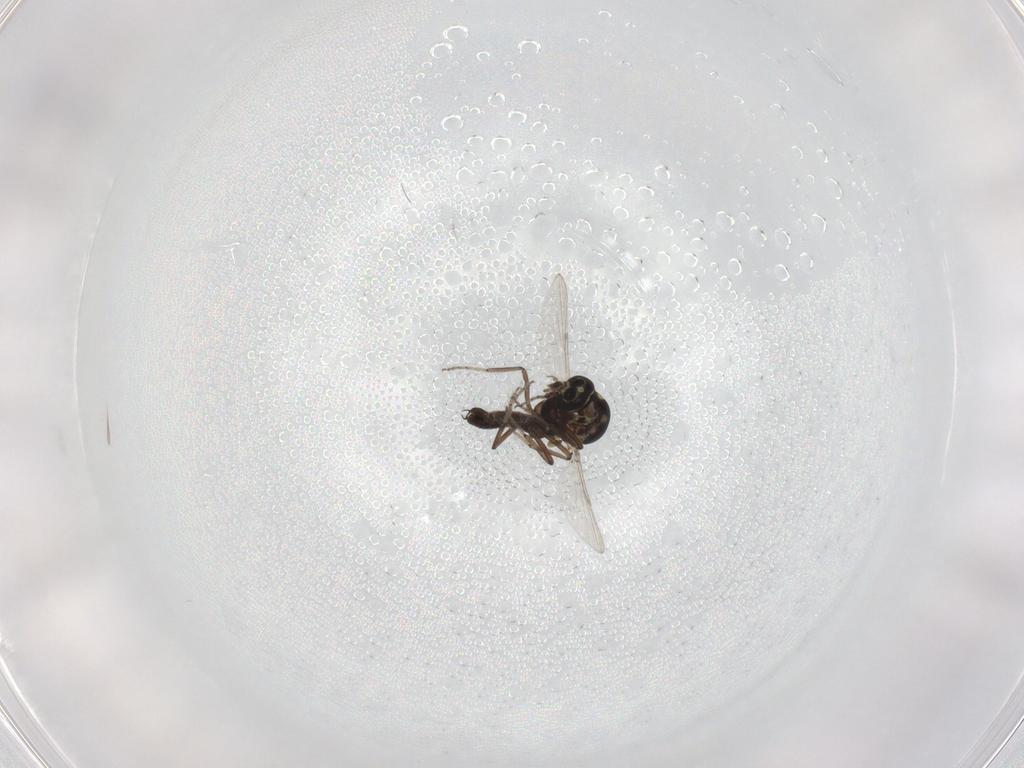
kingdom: Animalia
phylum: Arthropoda
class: Insecta
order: Diptera
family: Ceratopogonidae
